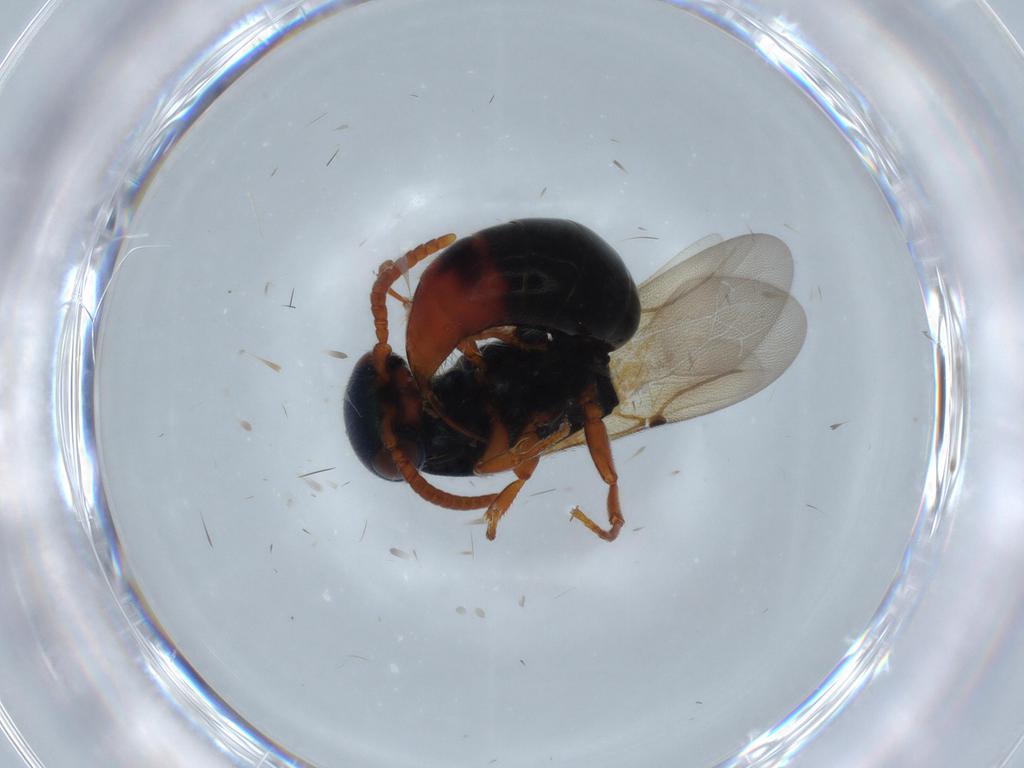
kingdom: Animalia
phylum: Arthropoda
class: Insecta
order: Hymenoptera
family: Bethylidae
